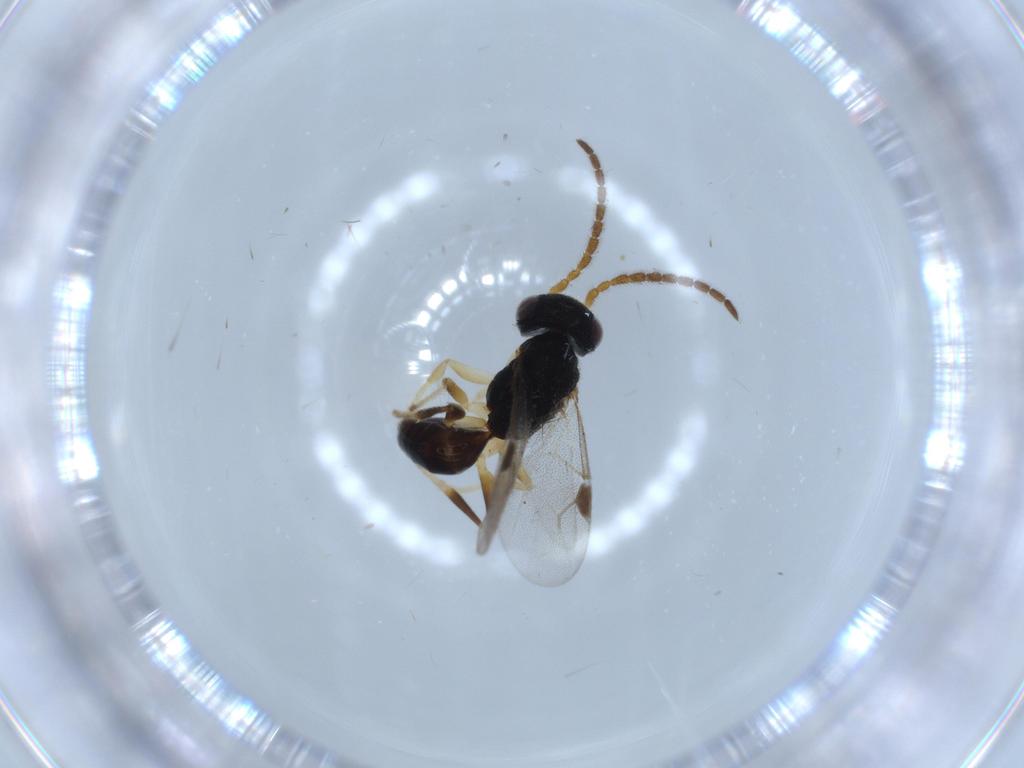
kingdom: Animalia
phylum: Arthropoda
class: Insecta
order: Hymenoptera
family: Dryinidae
